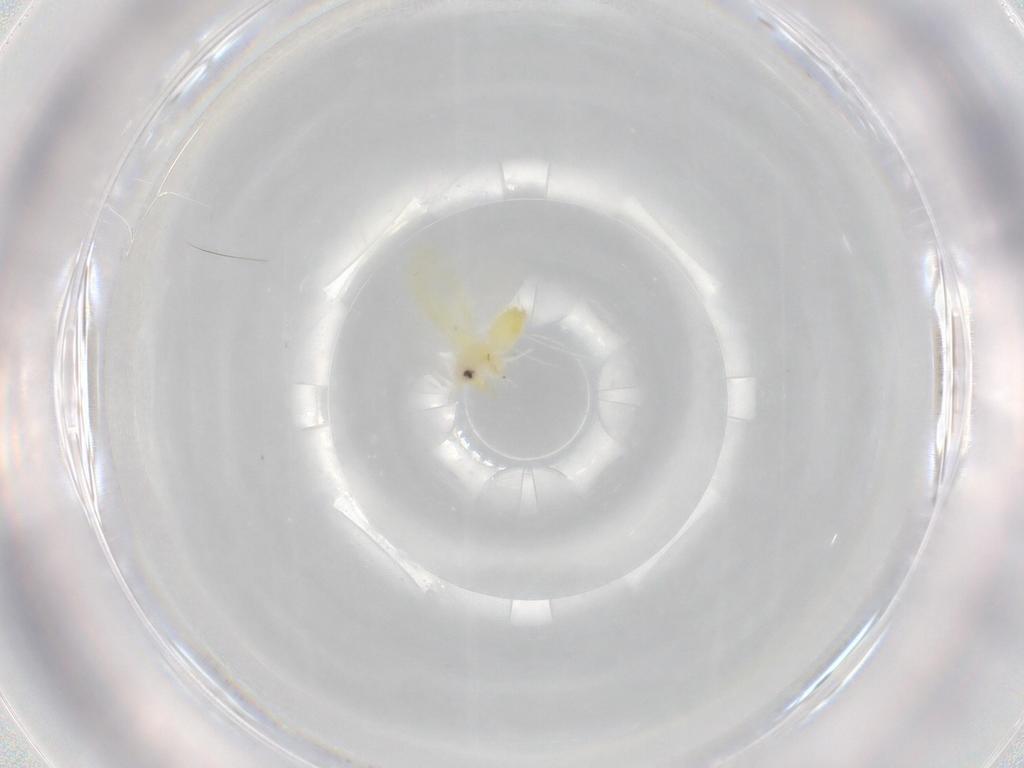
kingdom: Animalia
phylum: Arthropoda
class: Insecta
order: Hemiptera
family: Aleyrodidae
